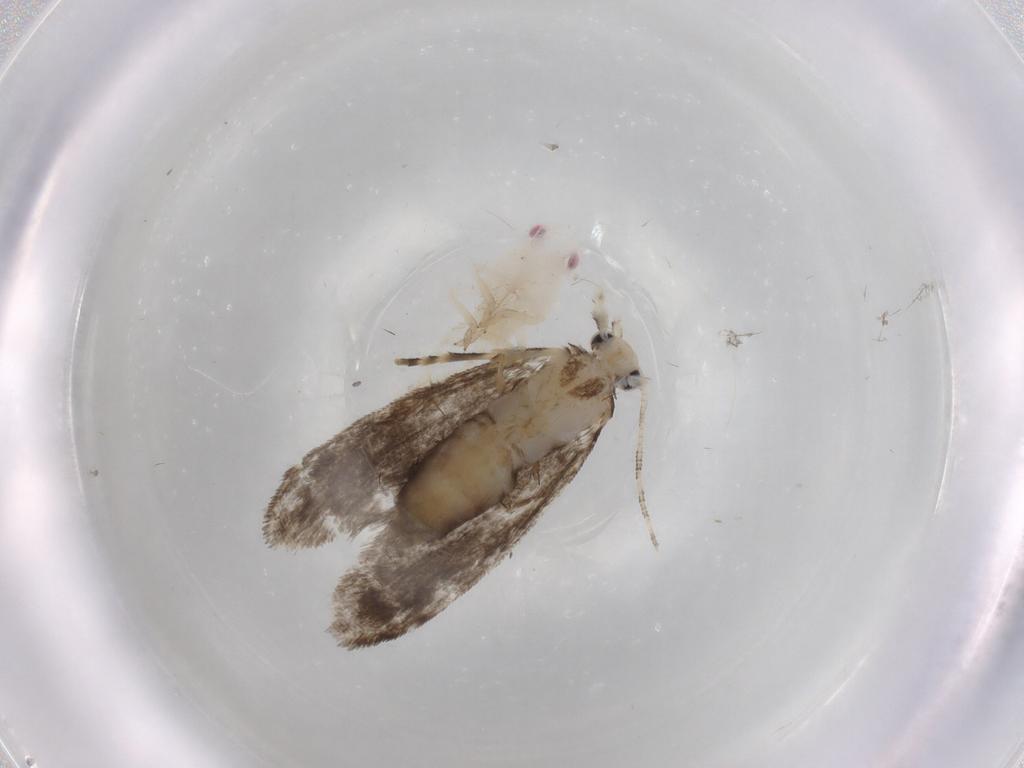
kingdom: Animalia
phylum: Arthropoda
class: Insecta
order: Lepidoptera
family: Tineidae
